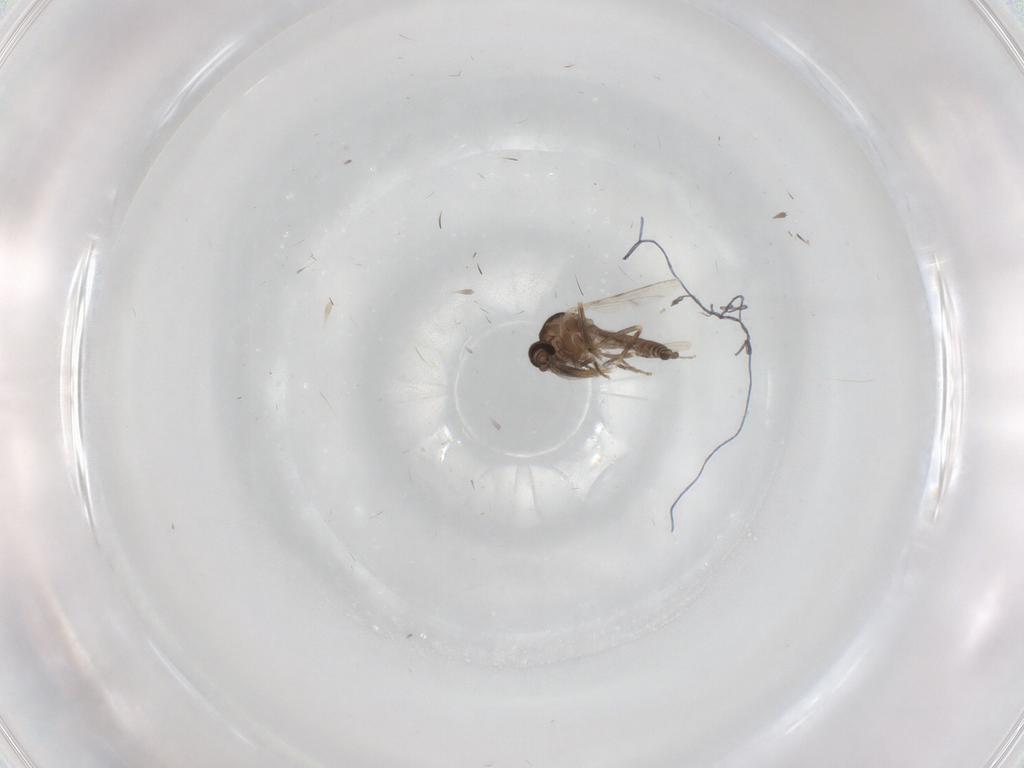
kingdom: Animalia
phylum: Arthropoda
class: Insecta
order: Diptera
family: Ceratopogonidae
